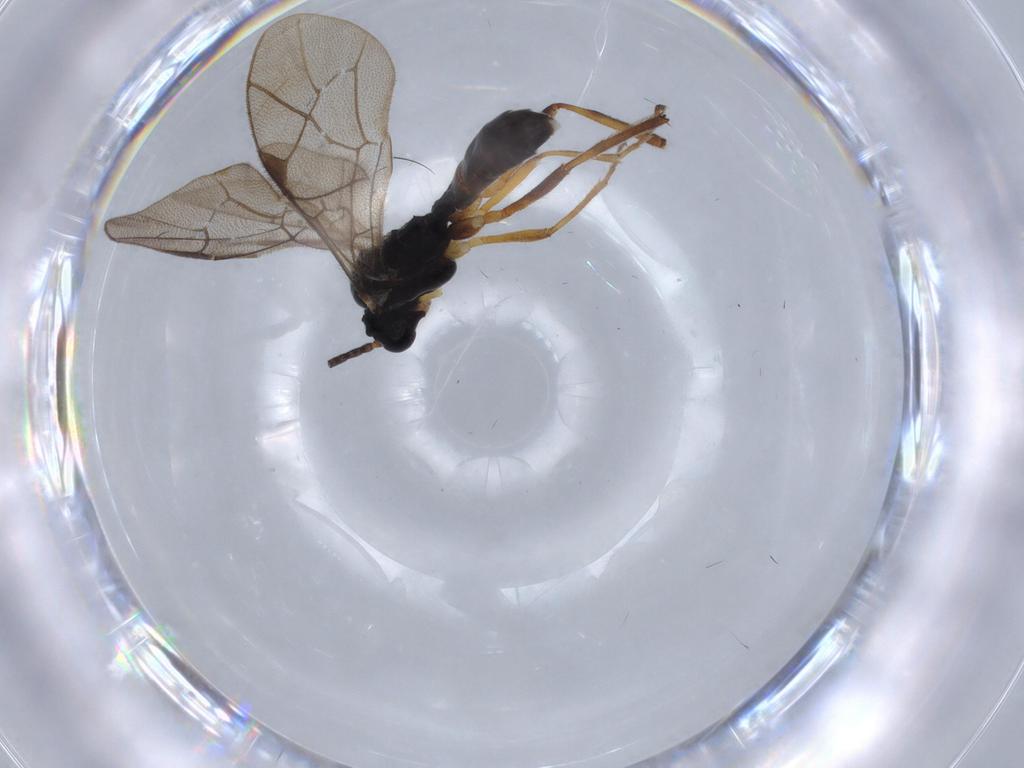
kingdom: Animalia
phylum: Arthropoda
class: Insecta
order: Hymenoptera
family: Ichneumonidae
